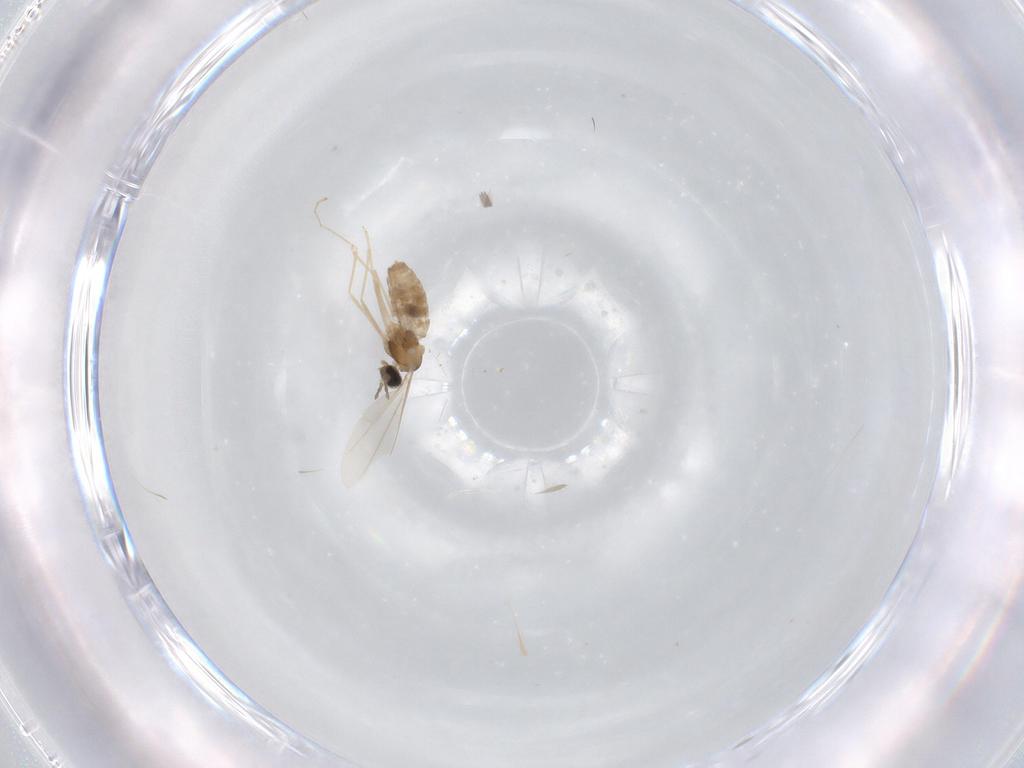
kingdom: Animalia
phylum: Arthropoda
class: Insecta
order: Diptera
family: Cecidomyiidae
